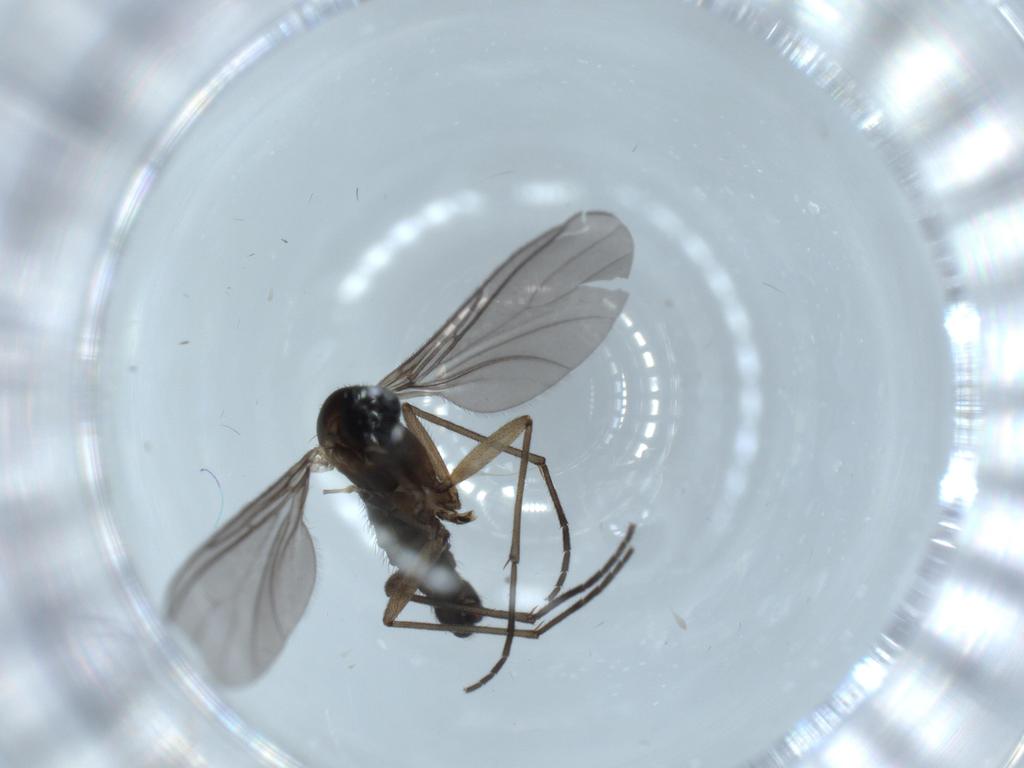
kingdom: Animalia
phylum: Arthropoda
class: Insecta
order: Diptera
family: Sciaridae
